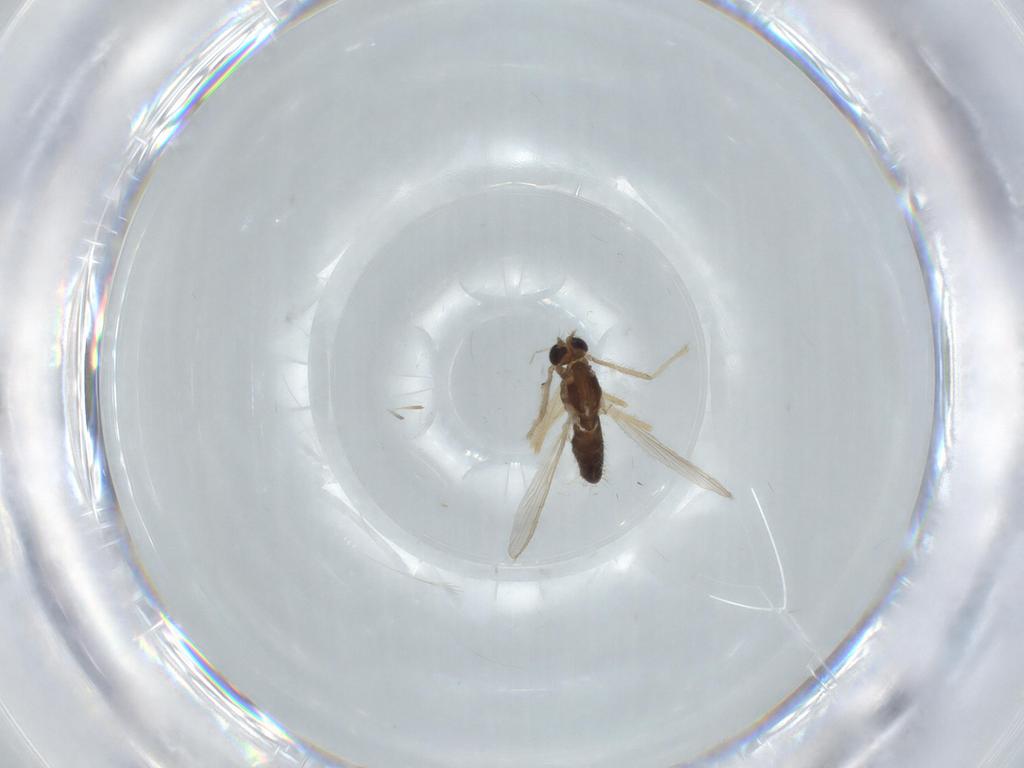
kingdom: Animalia
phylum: Arthropoda
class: Insecta
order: Diptera
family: Chironomidae
